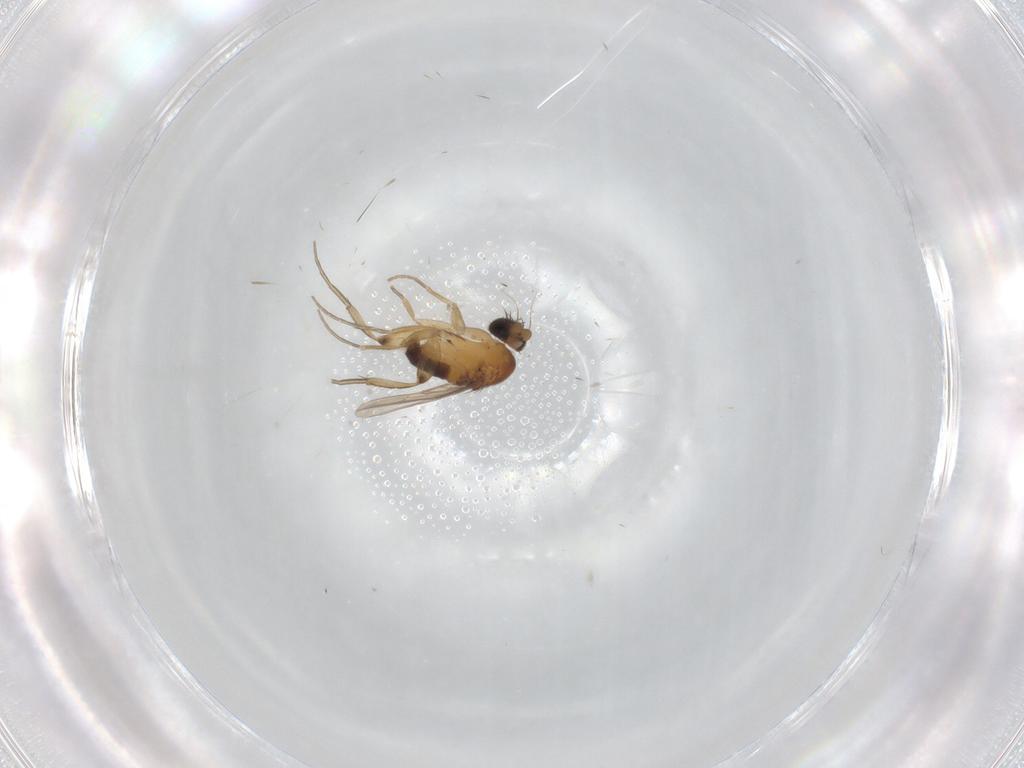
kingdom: Animalia
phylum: Arthropoda
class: Insecta
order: Diptera
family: Muscidae
